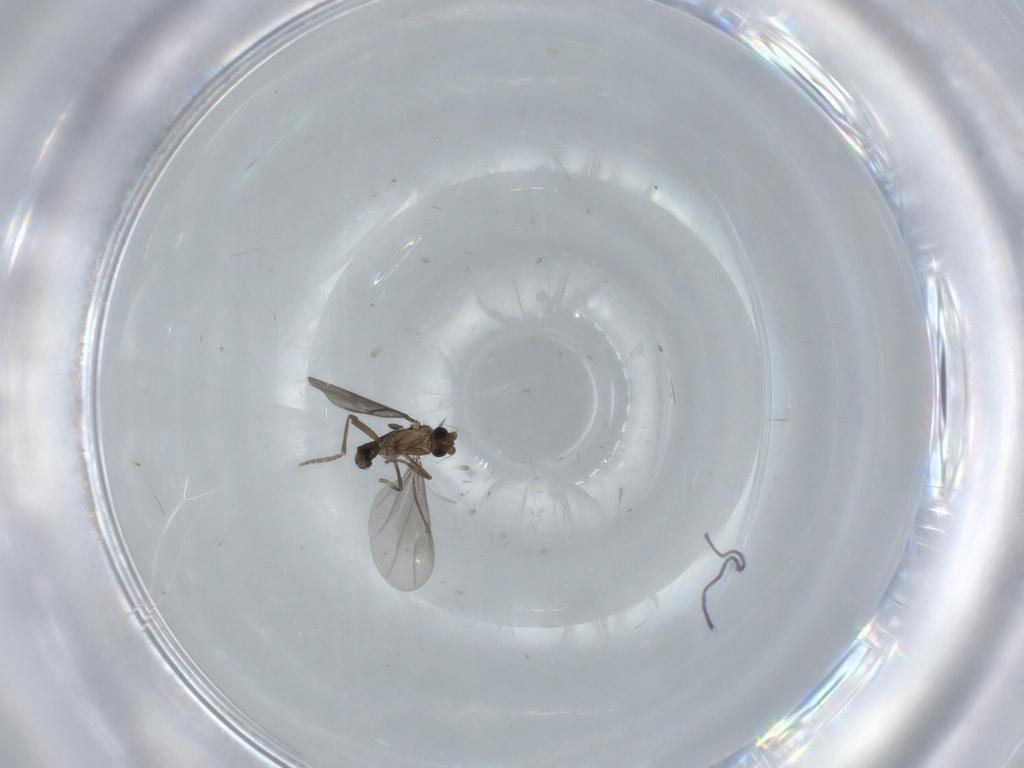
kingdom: Animalia
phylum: Arthropoda
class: Insecta
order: Diptera
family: Phoridae
